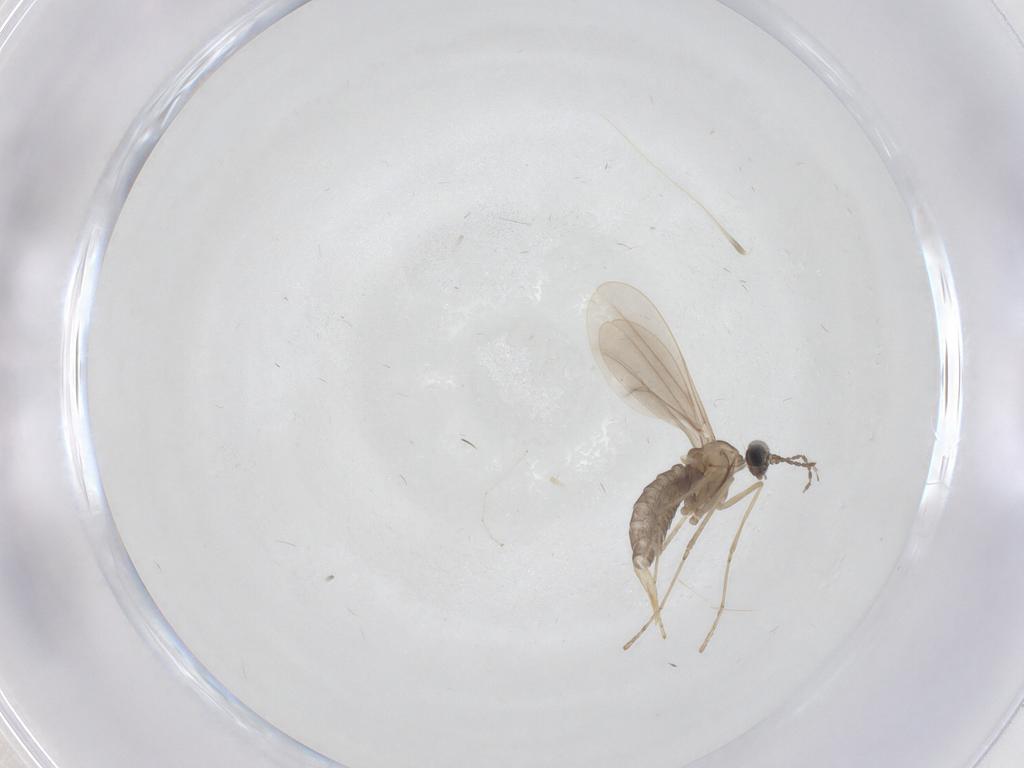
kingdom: Animalia
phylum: Arthropoda
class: Insecta
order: Diptera
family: Cecidomyiidae
